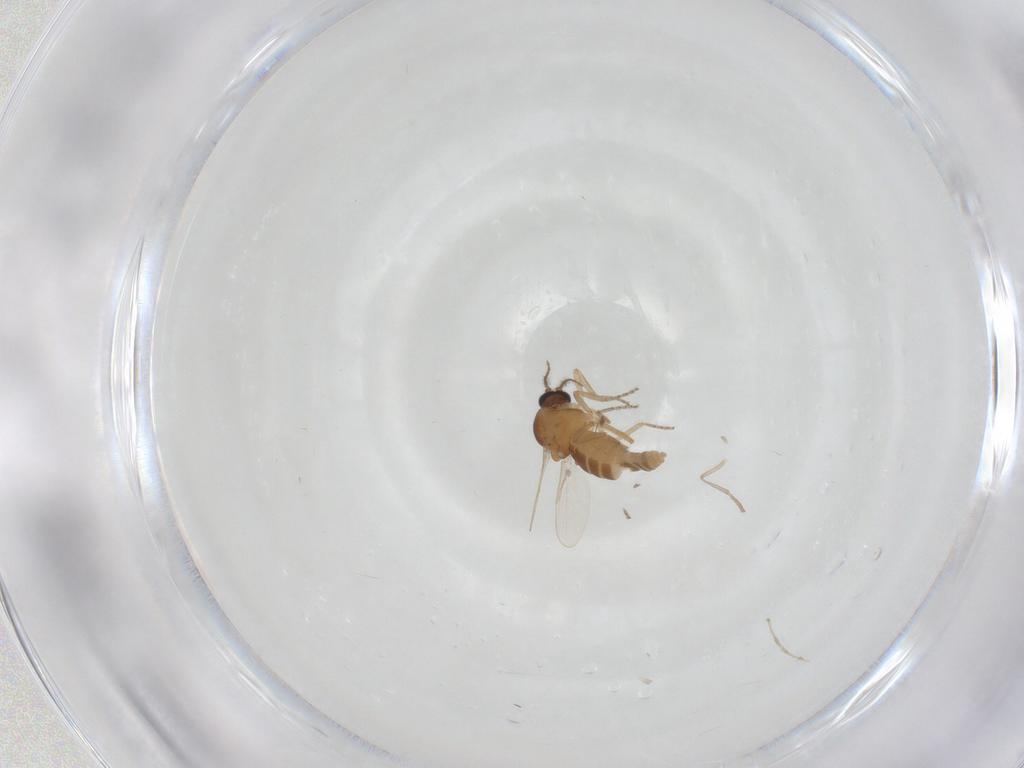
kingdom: Animalia
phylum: Arthropoda
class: Insecta
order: Diptera
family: Ceratopogonidae
